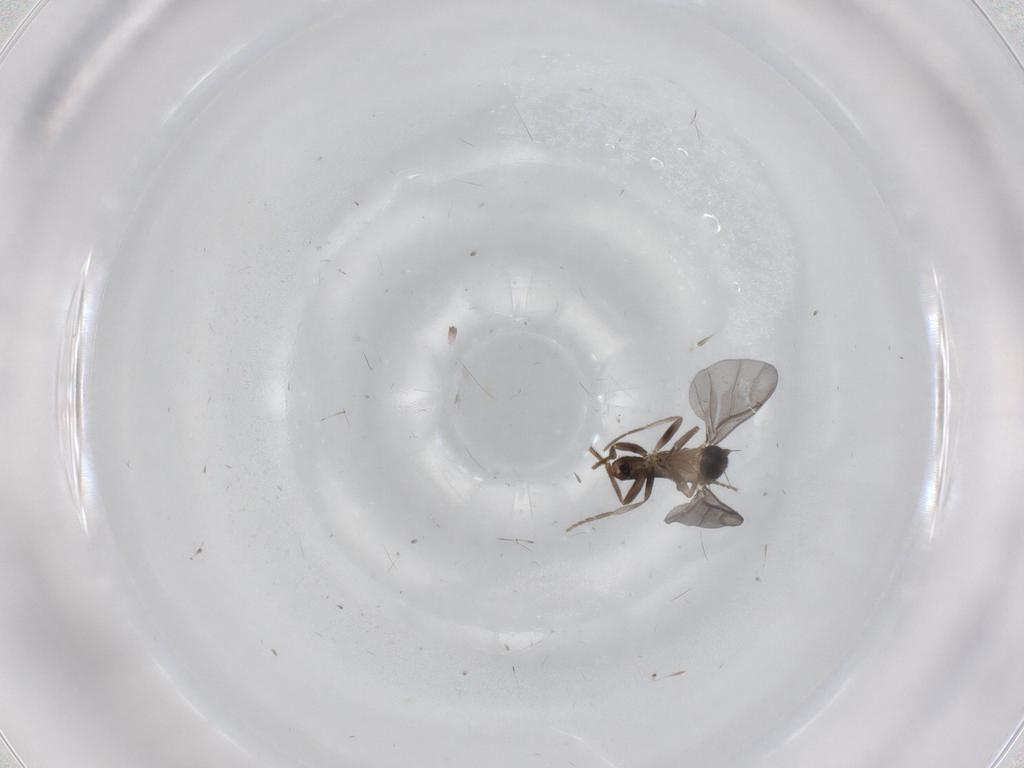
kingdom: Animalia
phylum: Arthropoda
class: Insecta
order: Diptera
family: Phoridae
